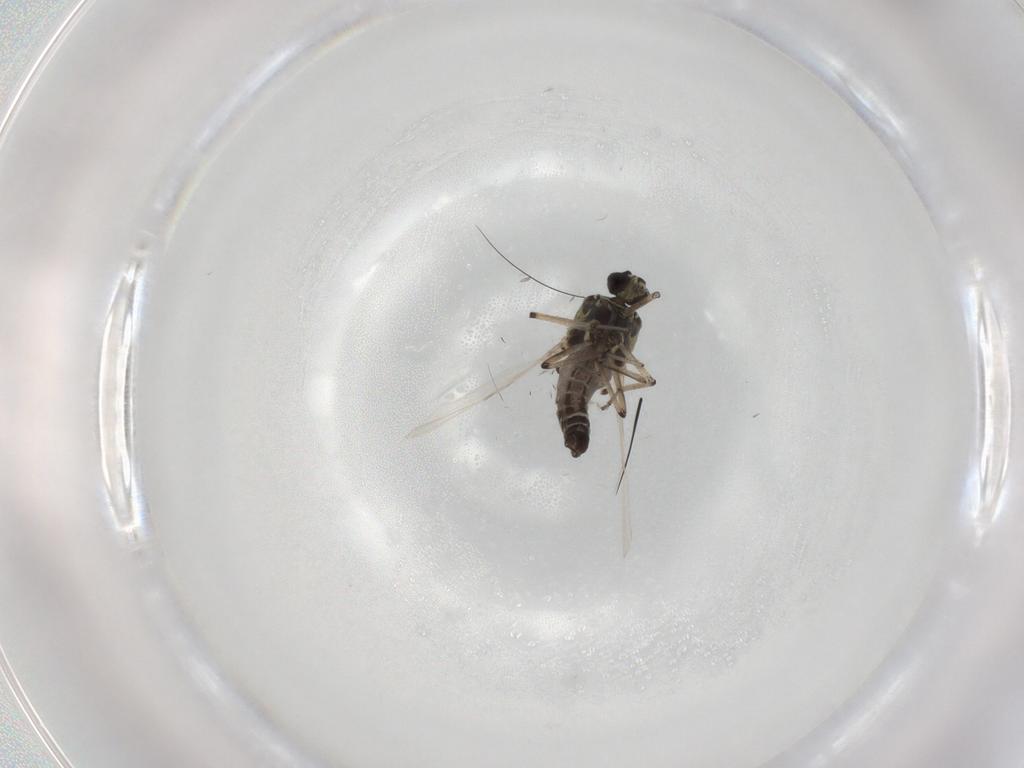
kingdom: Animalia
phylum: Arthropoda
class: Insecta
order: Diptera
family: Ceratopogonidae
